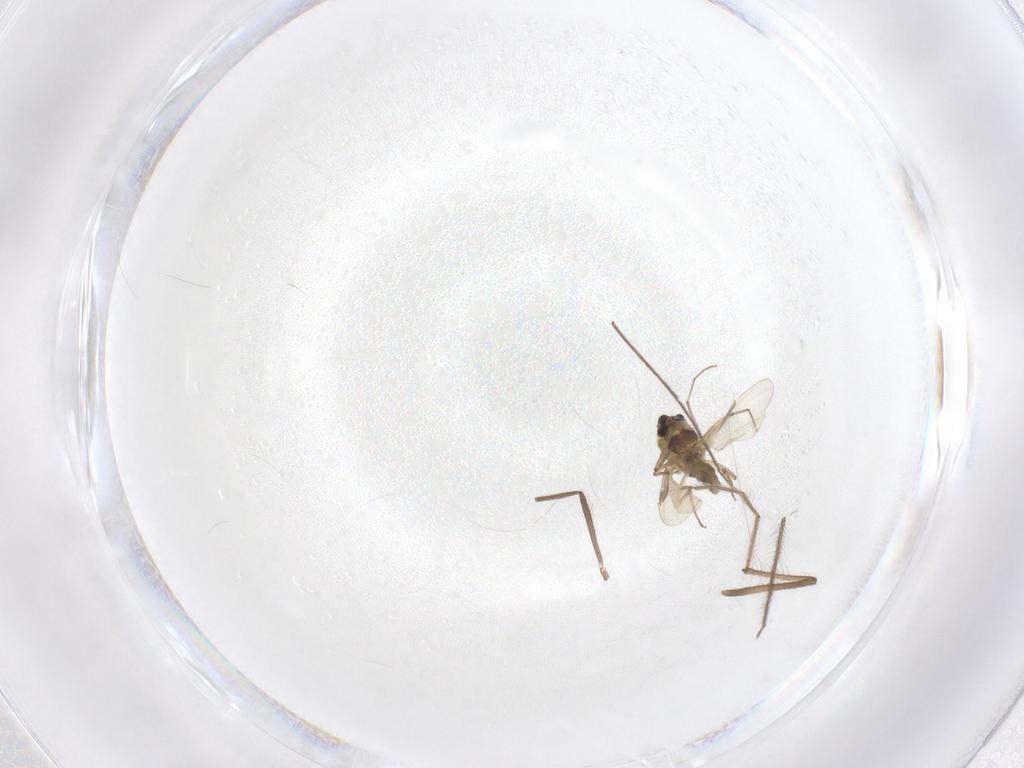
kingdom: Animalia
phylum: Arthropoda
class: Insecta
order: Diptera
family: Chironomidae
